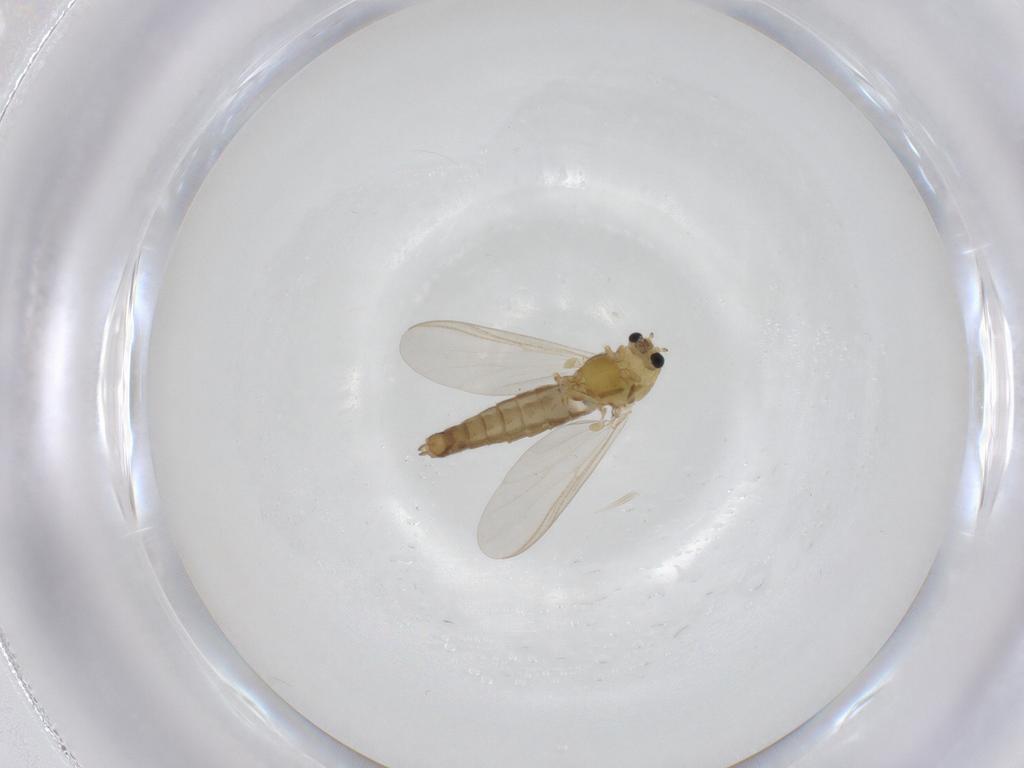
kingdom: Animalia
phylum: Arthropoda
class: Insecta
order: Diptera
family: Chironomidae
